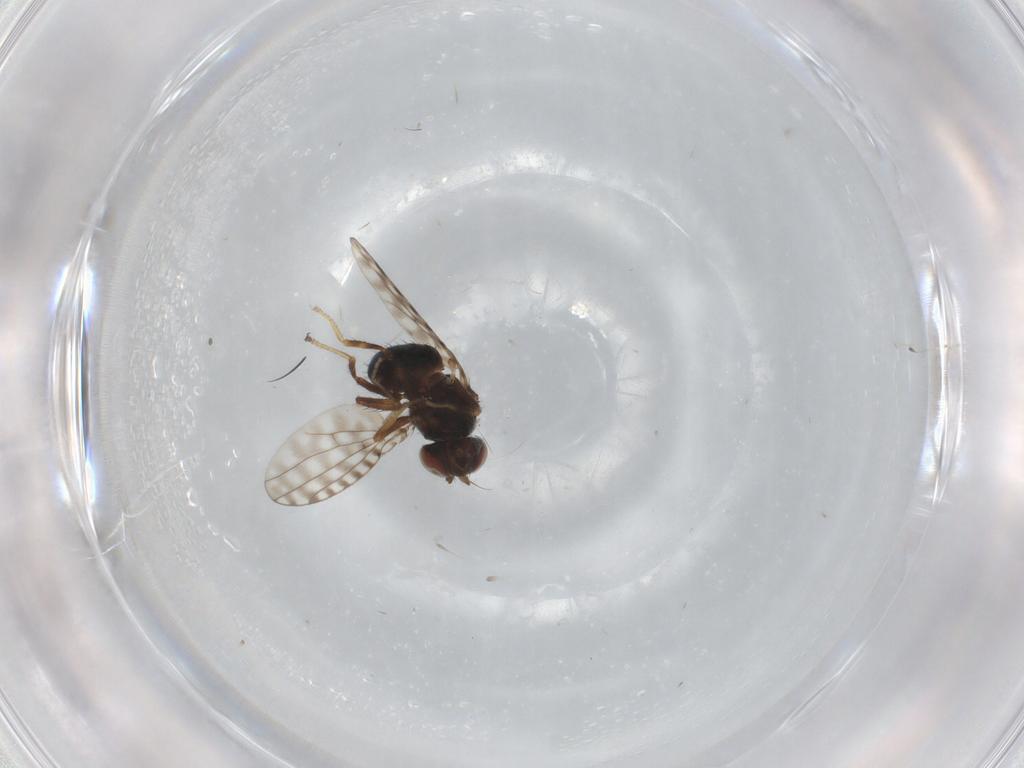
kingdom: Animalia
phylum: Arthropoda
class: Insecta
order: Diptera
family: Ephydridae
